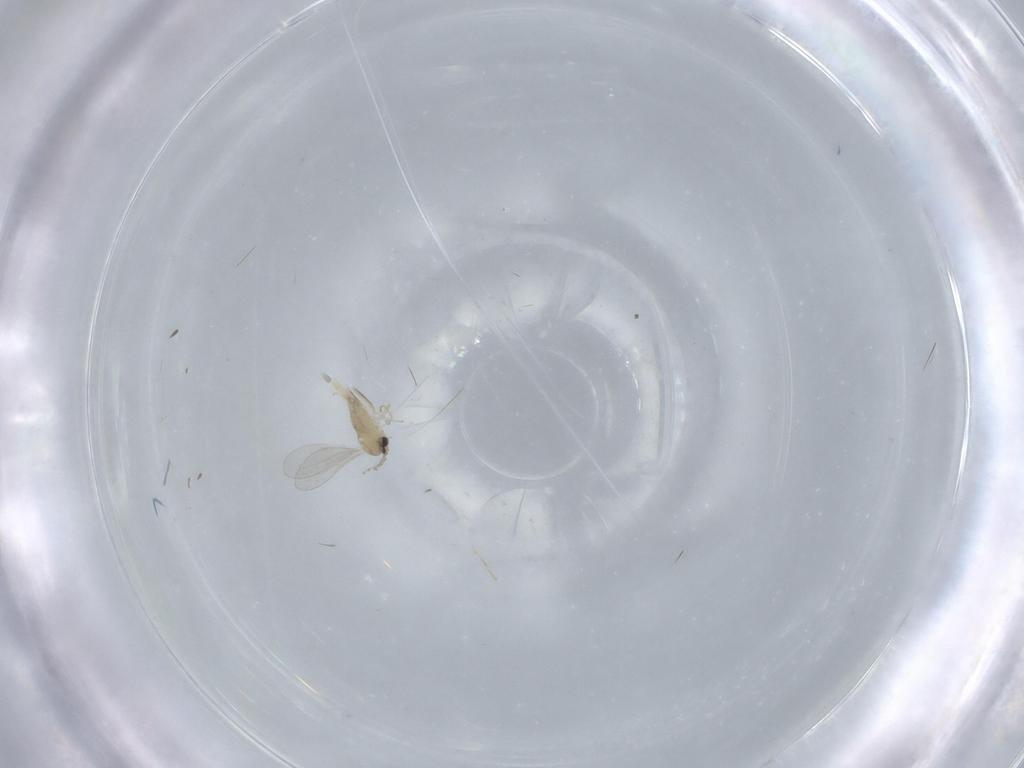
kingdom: Animalia
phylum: Arthropoda
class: Insecta
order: Diptera
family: Cecidomyiidae
